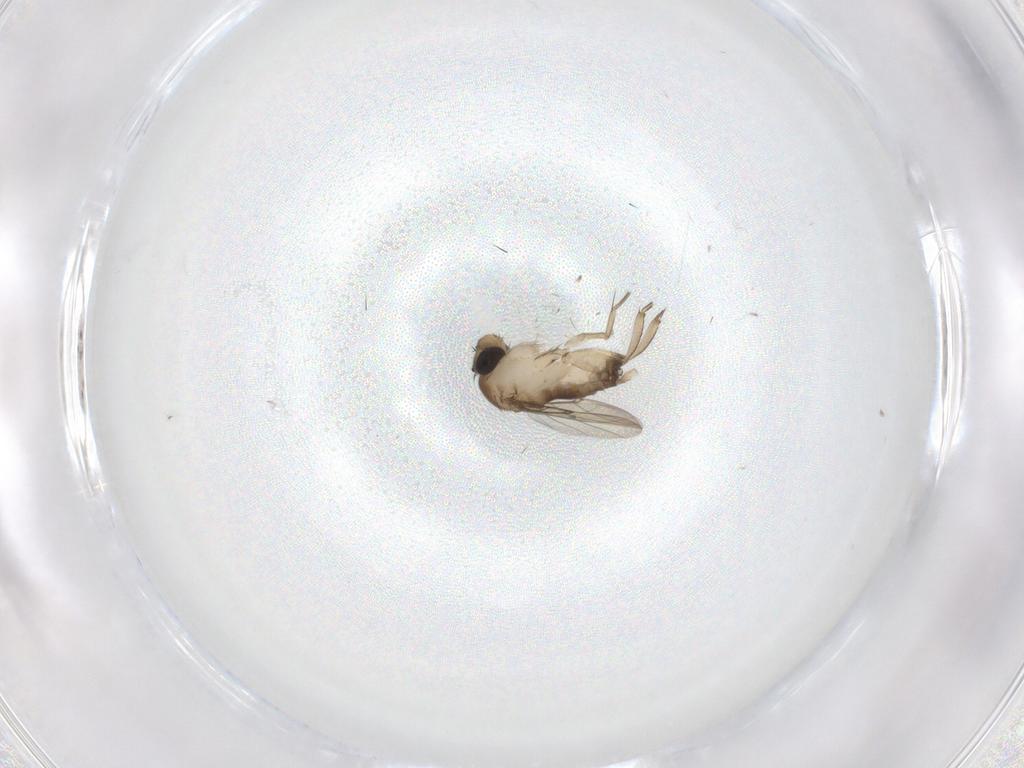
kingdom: Animalia
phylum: Arthropoda
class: Insecta
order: Diptera
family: Phoridae
